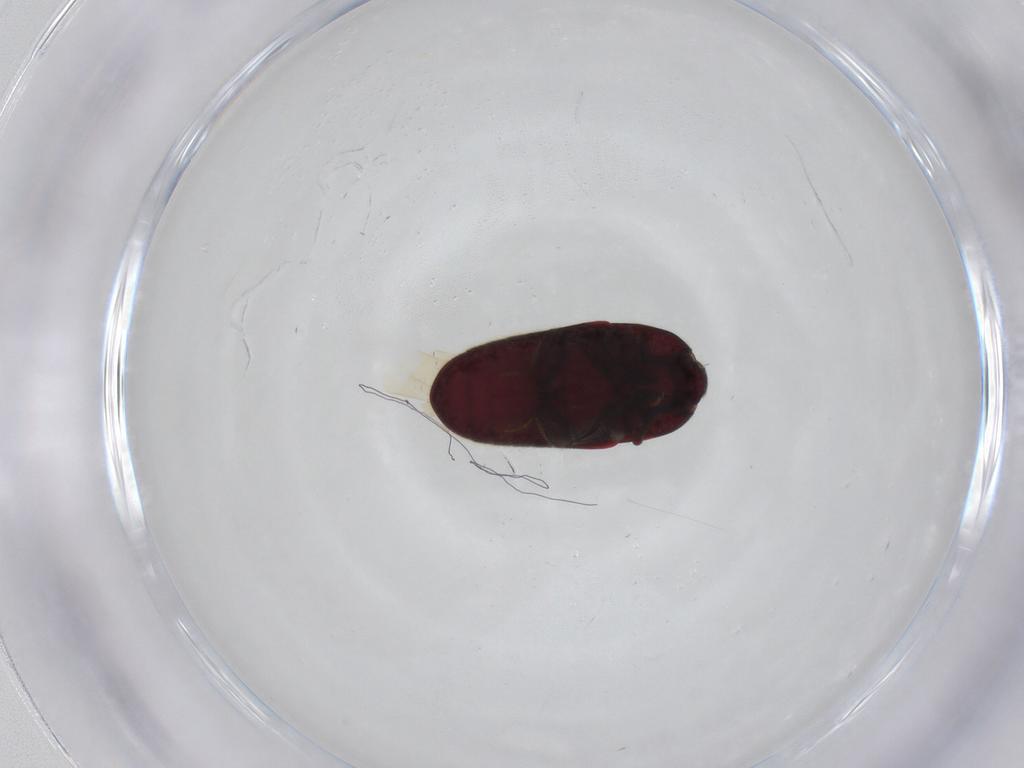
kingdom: Animalia
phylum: Arthropoda
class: Insecta
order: Coleoptera
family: Throscidae
